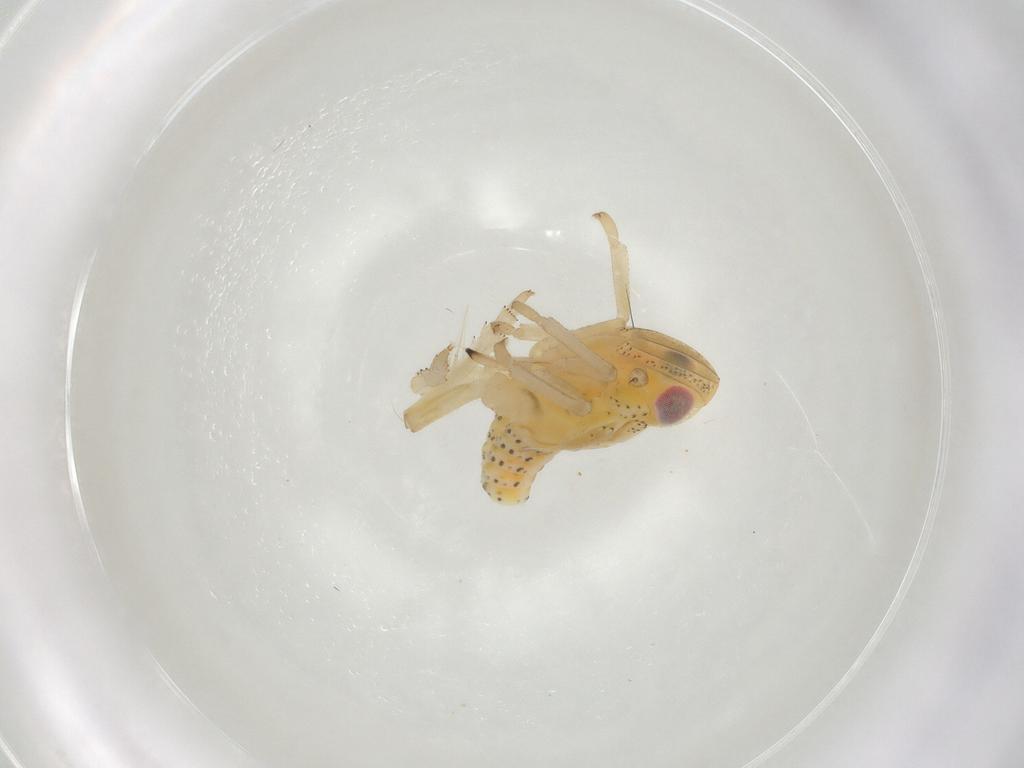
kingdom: Animalia
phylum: Arthropoda
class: Insecta
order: Hemiptera
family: Tropiduchidae
